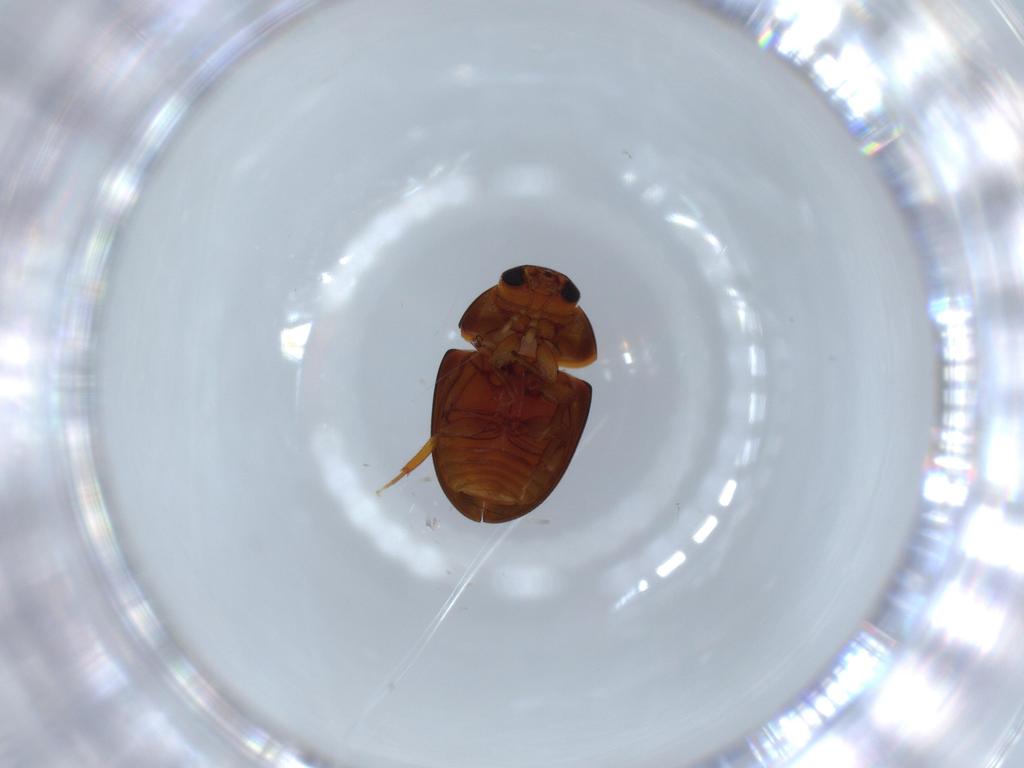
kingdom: Animalia
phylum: Arthropoda
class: Insecta
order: Coleoptera
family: Phalacridae
